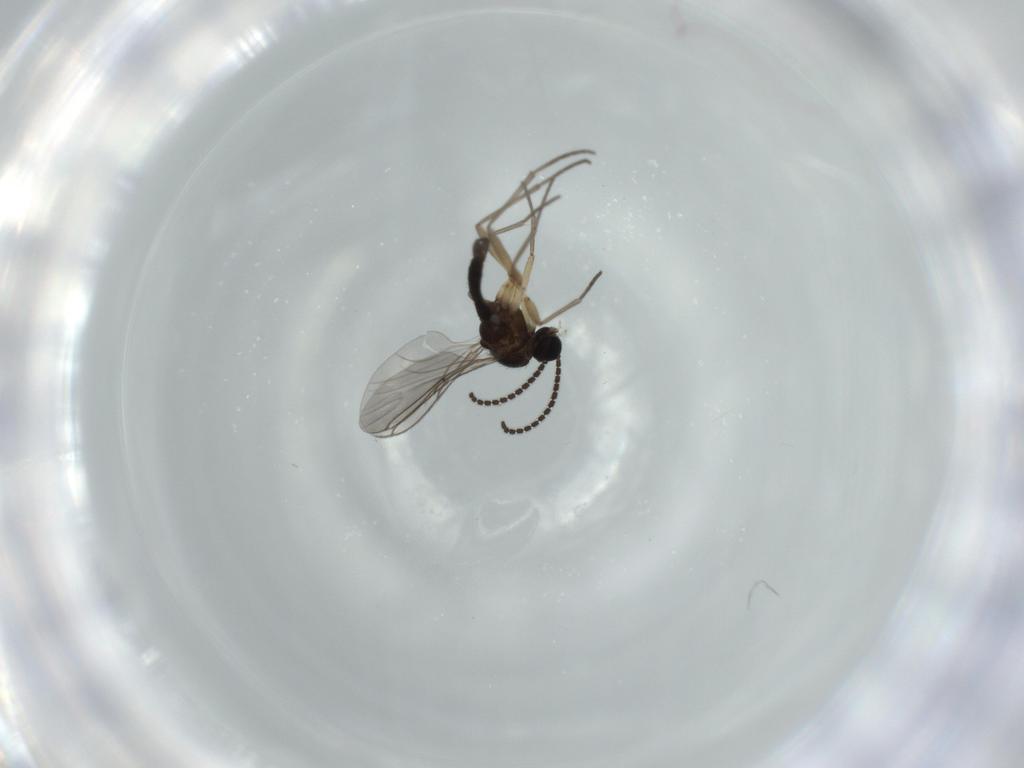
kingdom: Animalia
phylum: Arthropoda
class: Insecta
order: Diptera
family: Sciaridae
